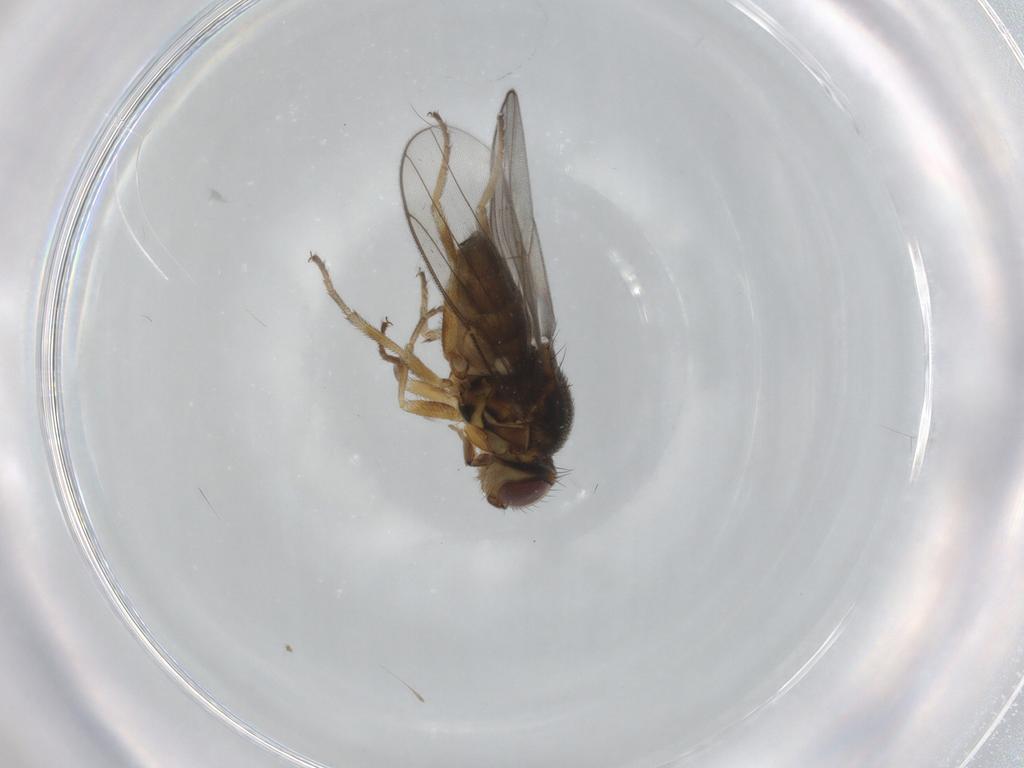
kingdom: Animalia
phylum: Arthropoda
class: Insecta
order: Diptera
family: Chloropidae
